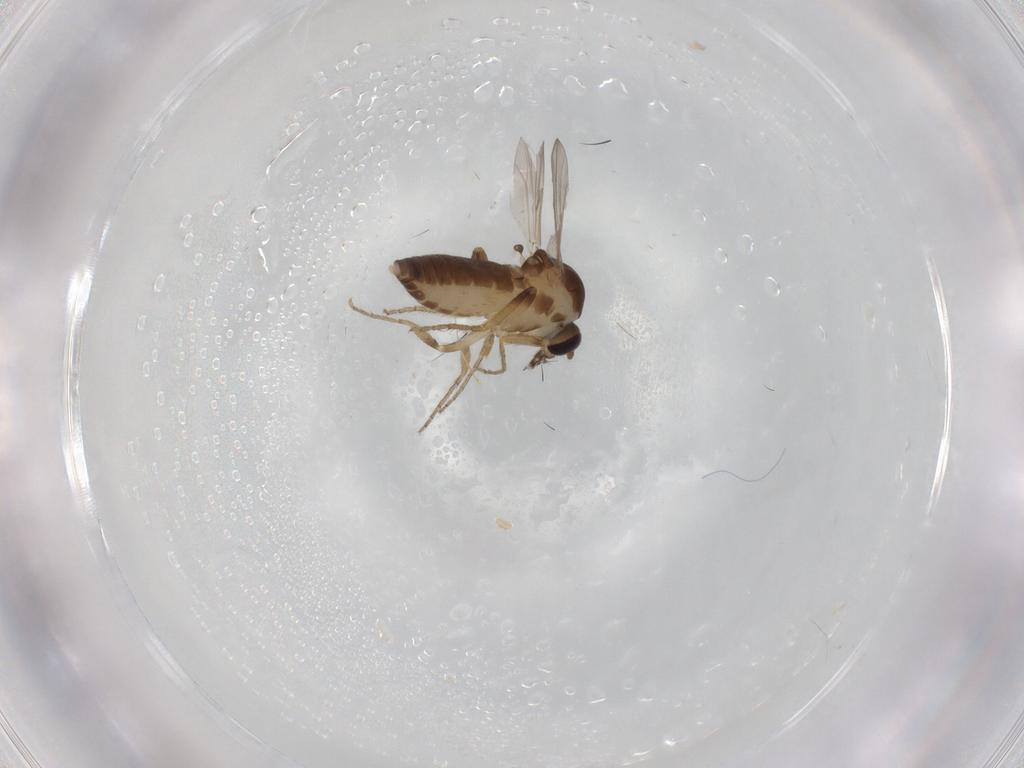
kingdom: Animalia
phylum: Arthropoda
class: Insecta
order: Diptera
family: Ceratopogonidae
